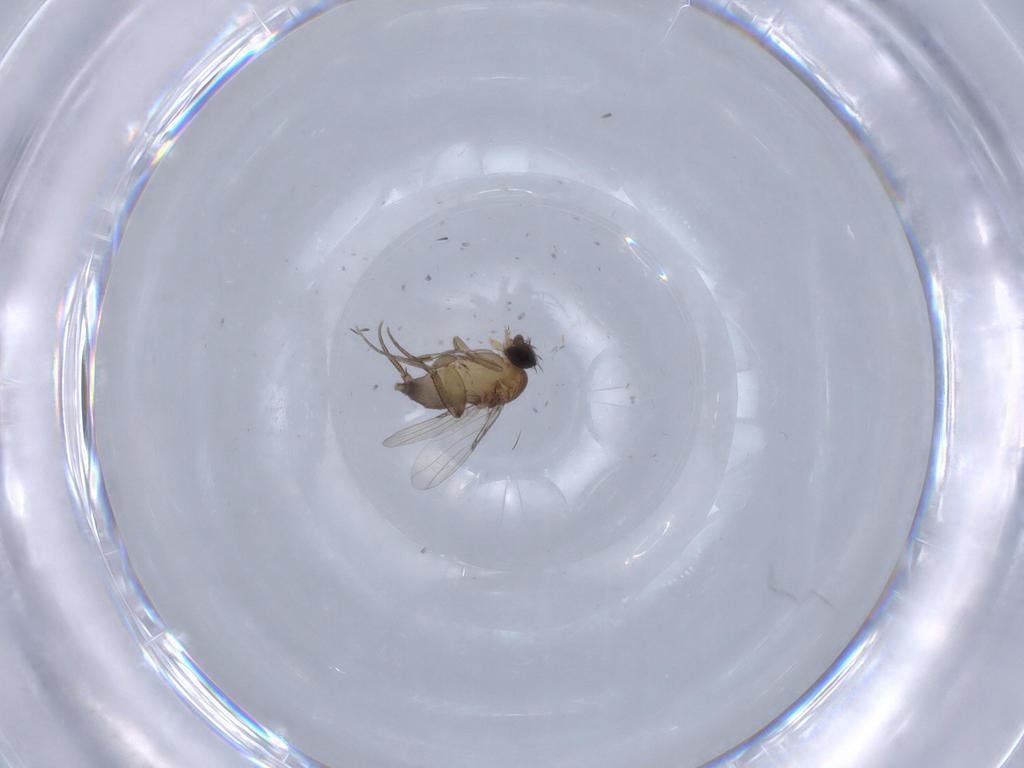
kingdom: Animalia
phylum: Arthropoda
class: Insecta
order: Diptera
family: Phoridae
